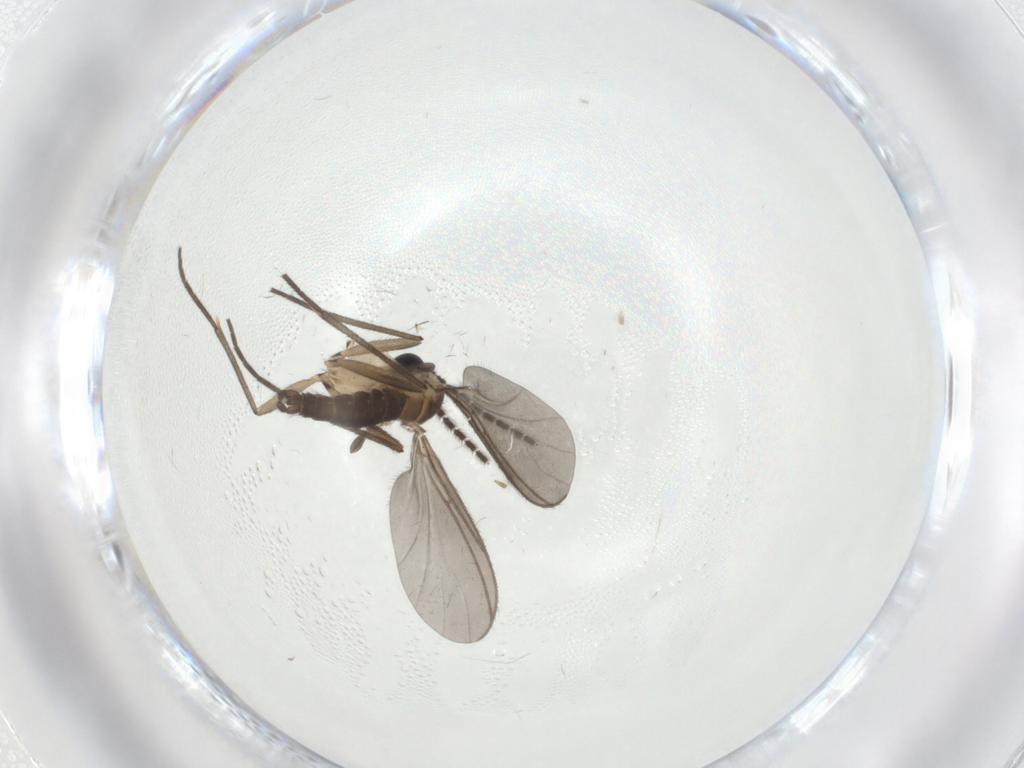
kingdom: Animalia
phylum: Arthropoda
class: Insecta
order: Diptera
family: Sciaridae
